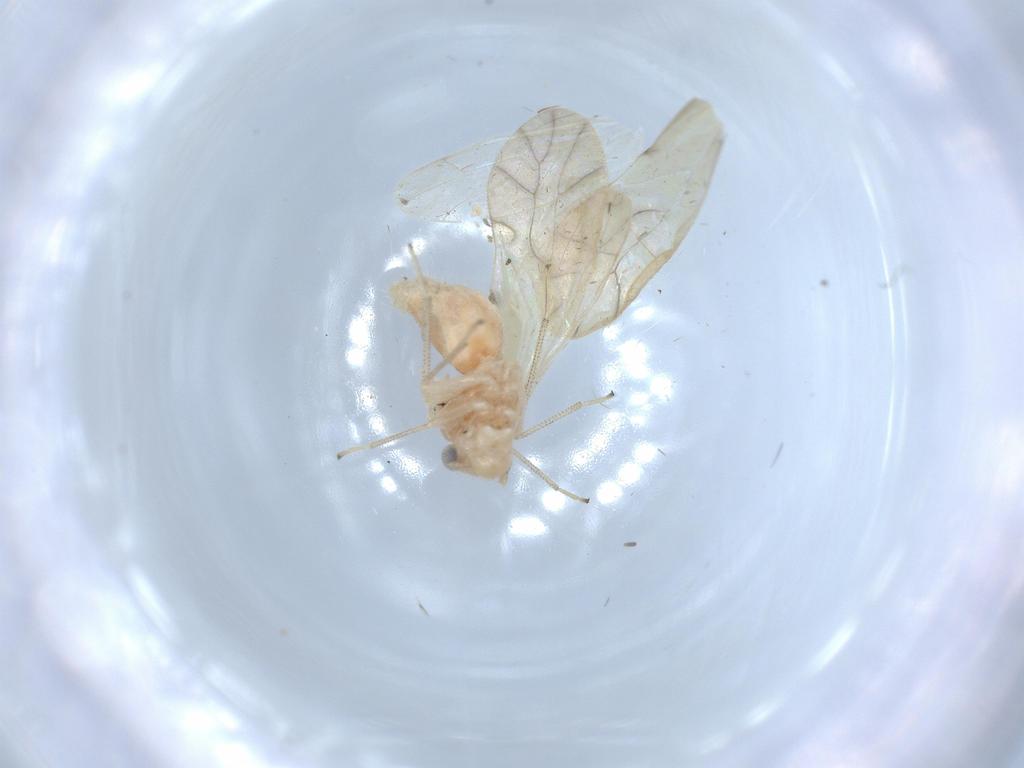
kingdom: Animalia
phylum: Arthropoda
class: Insecta
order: Psocodea
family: Caeciliusidae
